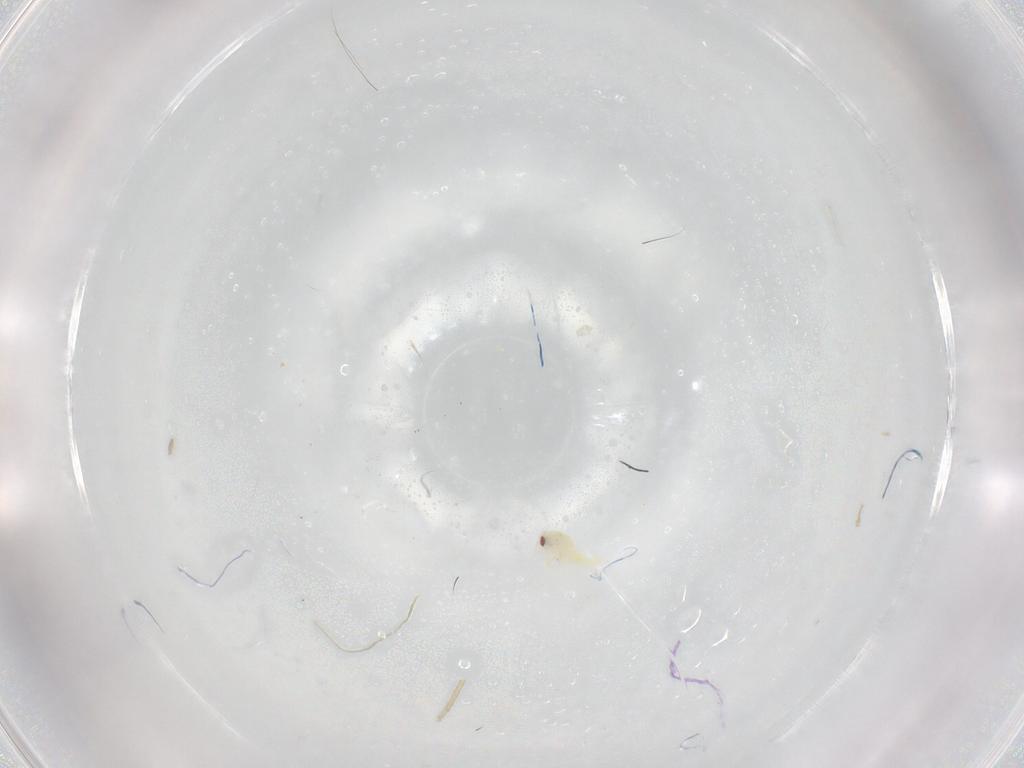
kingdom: Animalia
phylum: Arthropoda
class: Insecta
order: Hemiptera
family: Aleyrodidae
